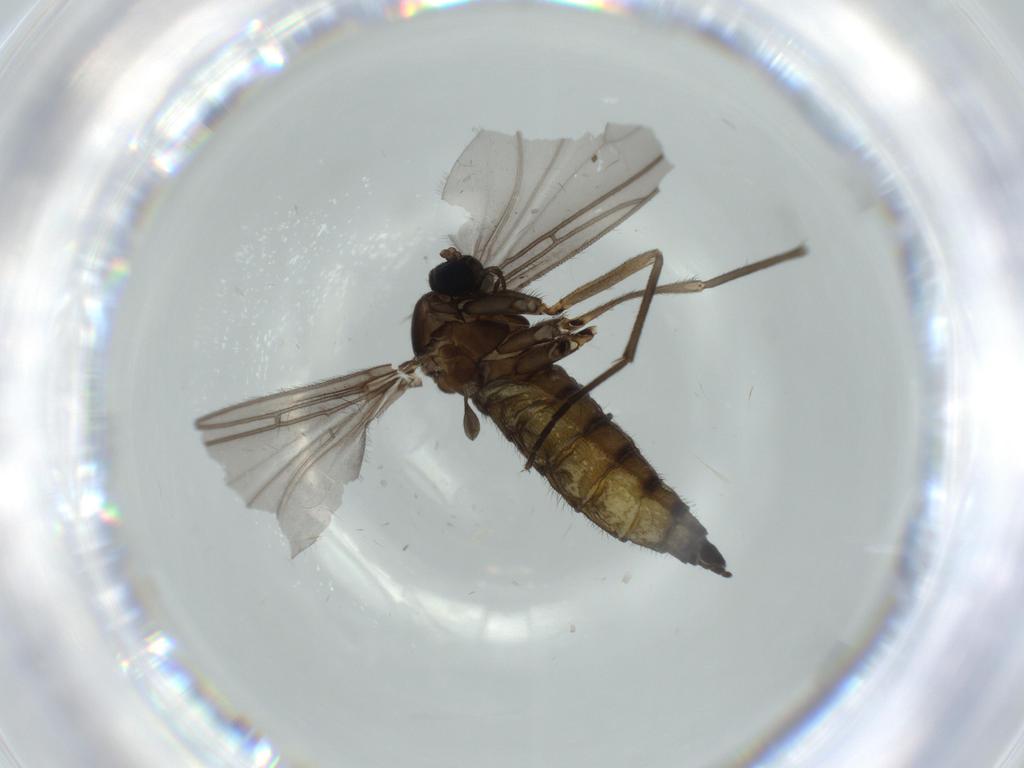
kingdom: Animalia
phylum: Arthropoda
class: Insecta
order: Diptera
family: Sciaridae
